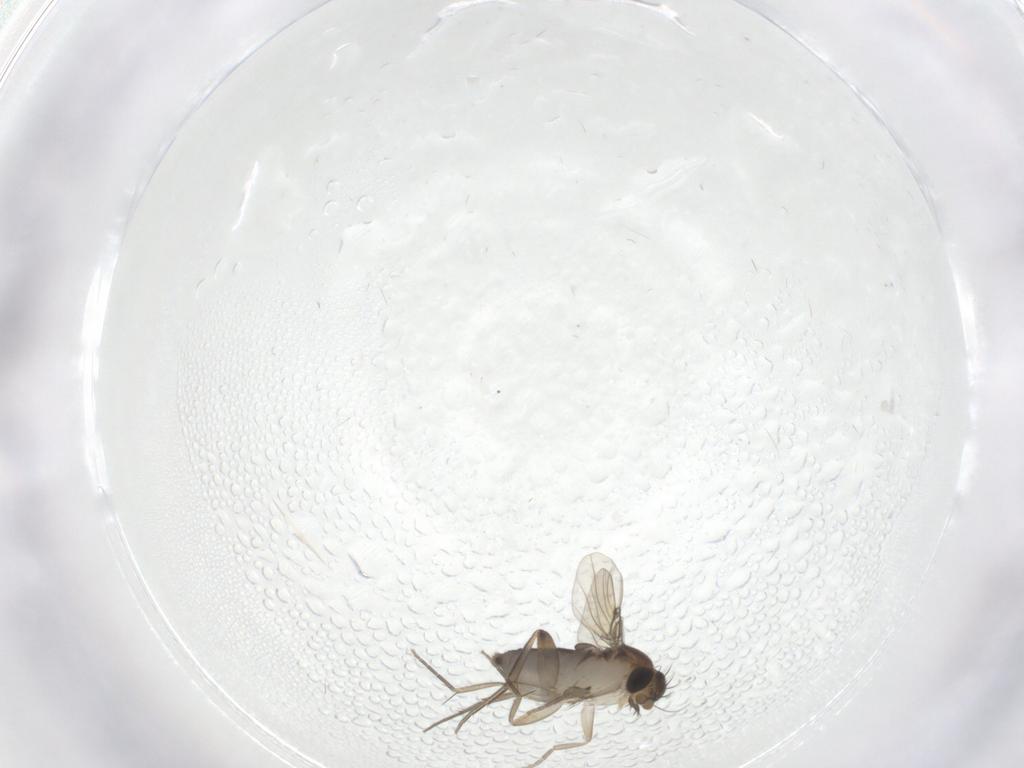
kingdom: Animalia
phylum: Arthropoda
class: Insecta
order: Diptera
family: Phoridae
